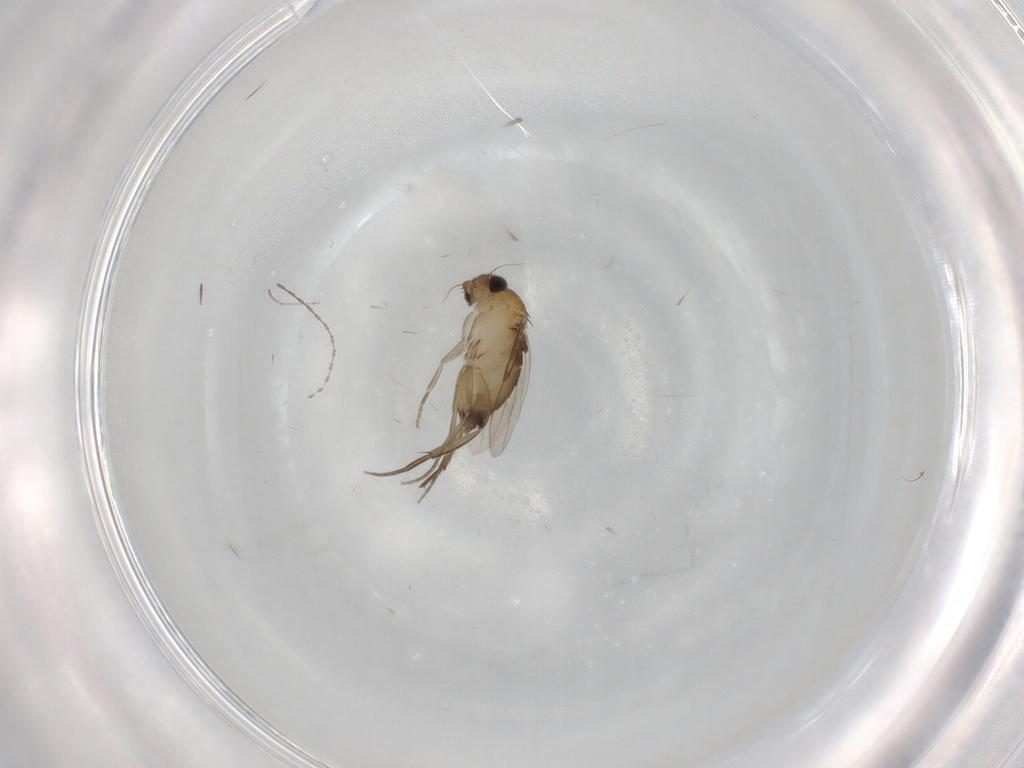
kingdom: Animalia
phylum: Arthropoda
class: Insecta
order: Diptera
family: Phoridae
